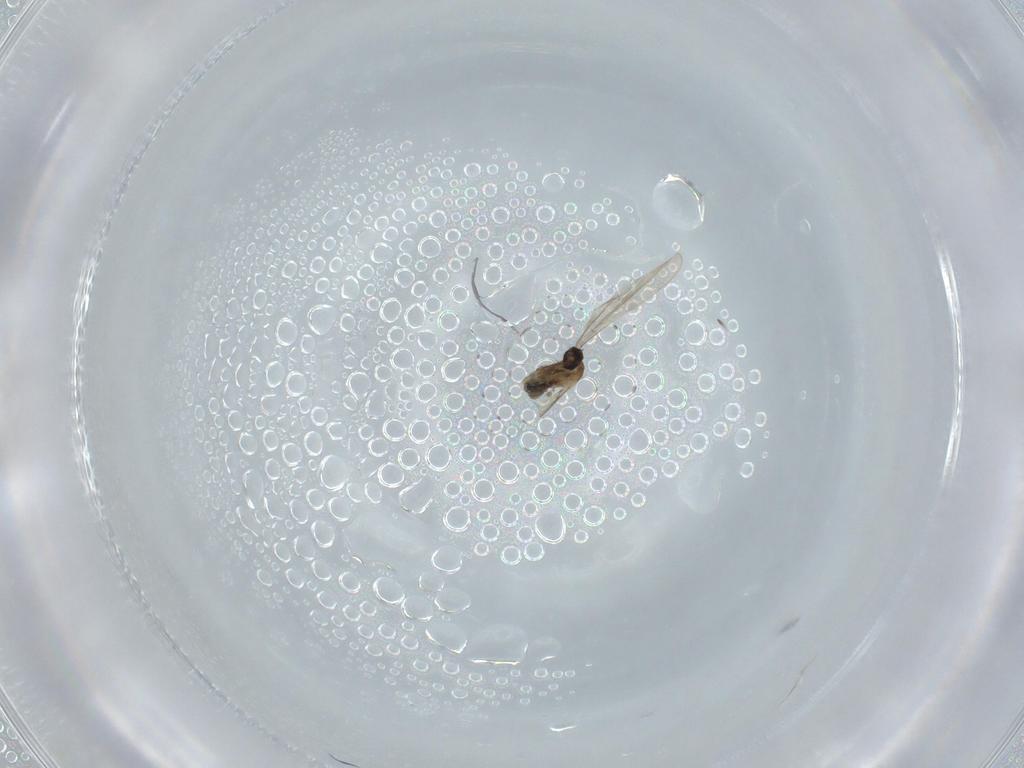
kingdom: Animalia
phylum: Arthropoda
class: Insecta
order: Diptera
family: Cecidomyiidae
